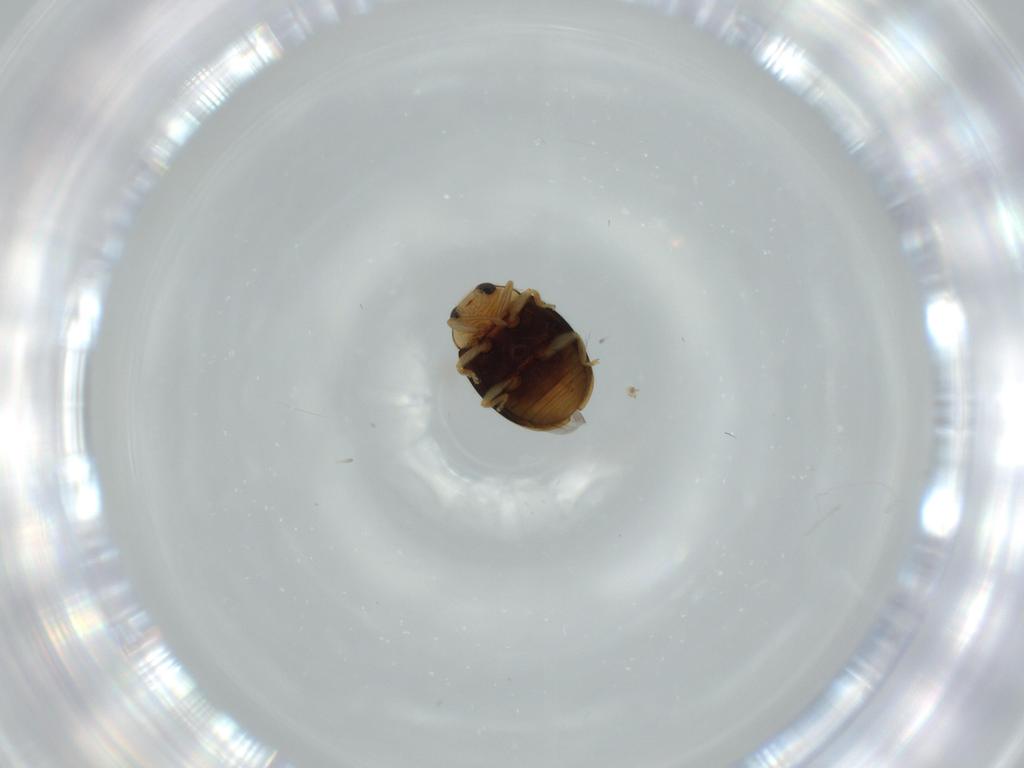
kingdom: Animalia
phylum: Arthropoda
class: Insecta
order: Coleoptera
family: Chrysomelidae
